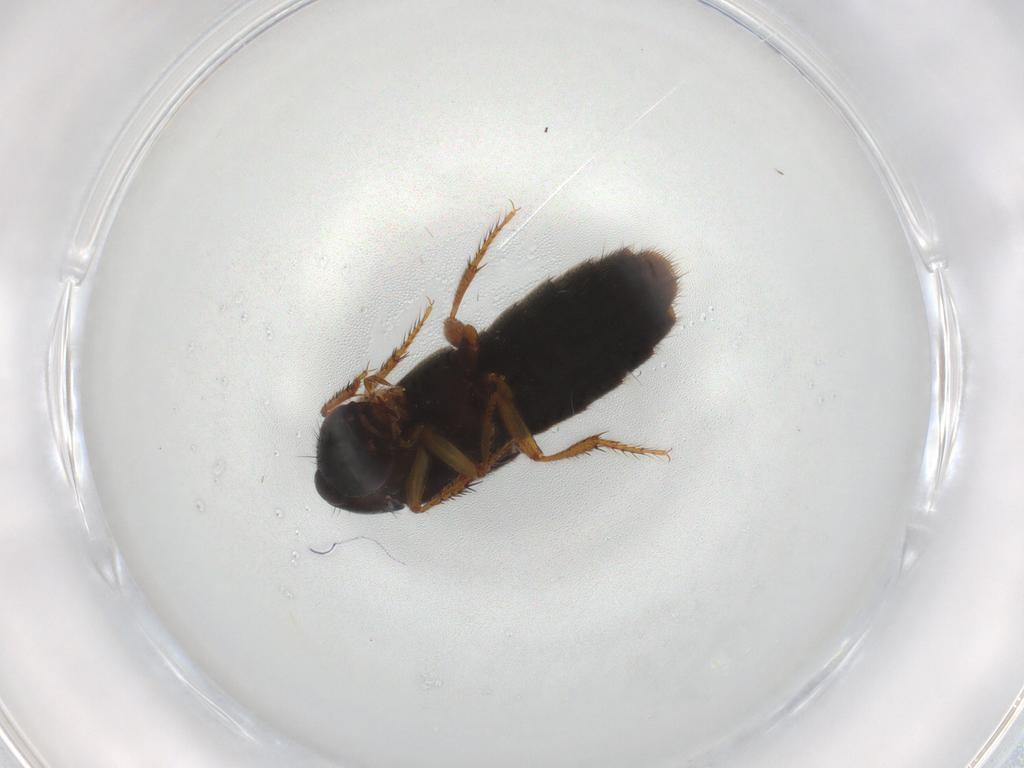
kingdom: Animalia
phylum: Arthropoda
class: Insecta
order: Coleoptera
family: Staphylinidae
